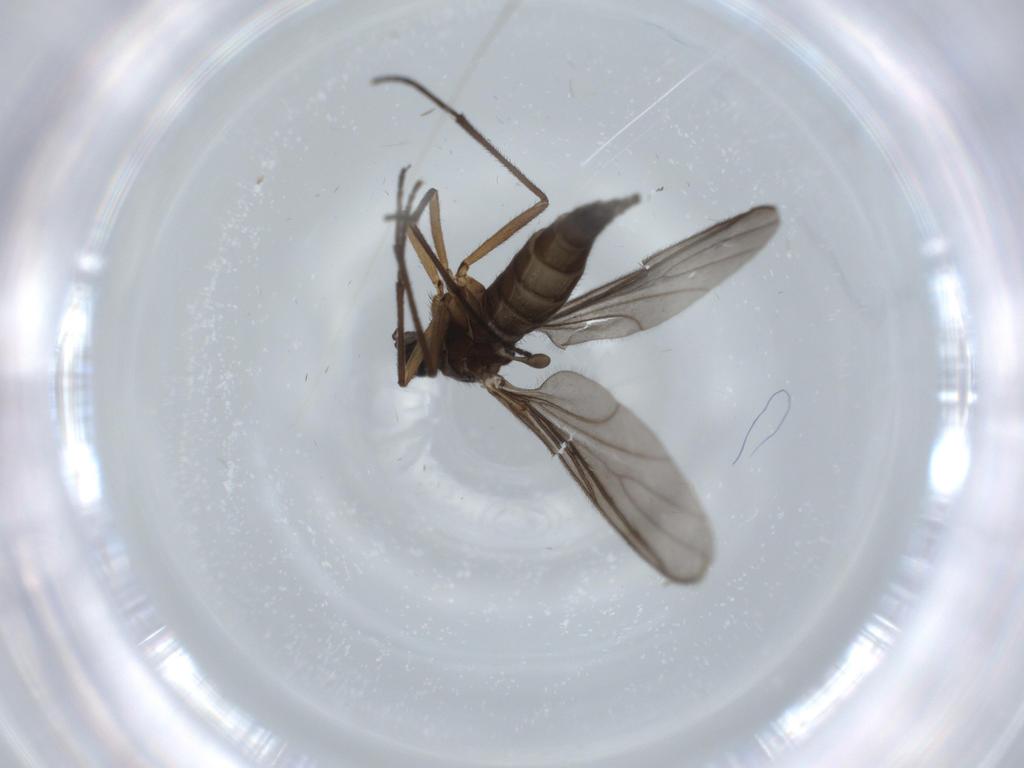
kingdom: Animalia
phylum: Arthropoda
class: Insecta
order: Diptera
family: Sciaridae
